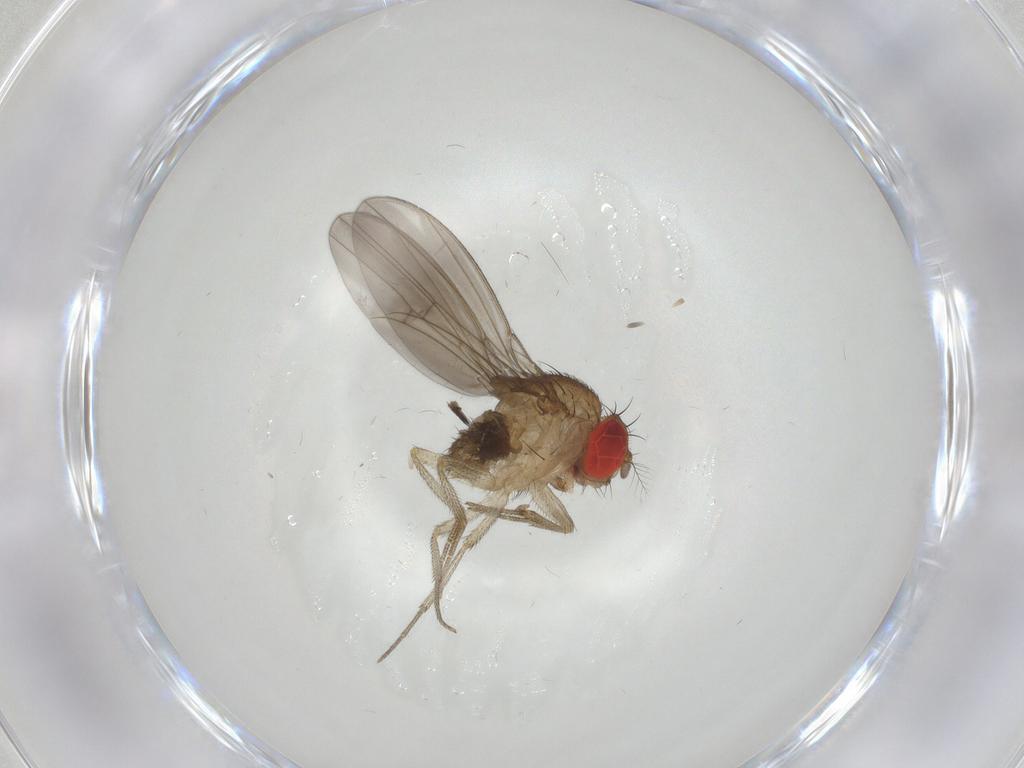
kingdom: Animalia
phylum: Arthropoda
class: Insecta
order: Diptera
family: Drosophilidae
